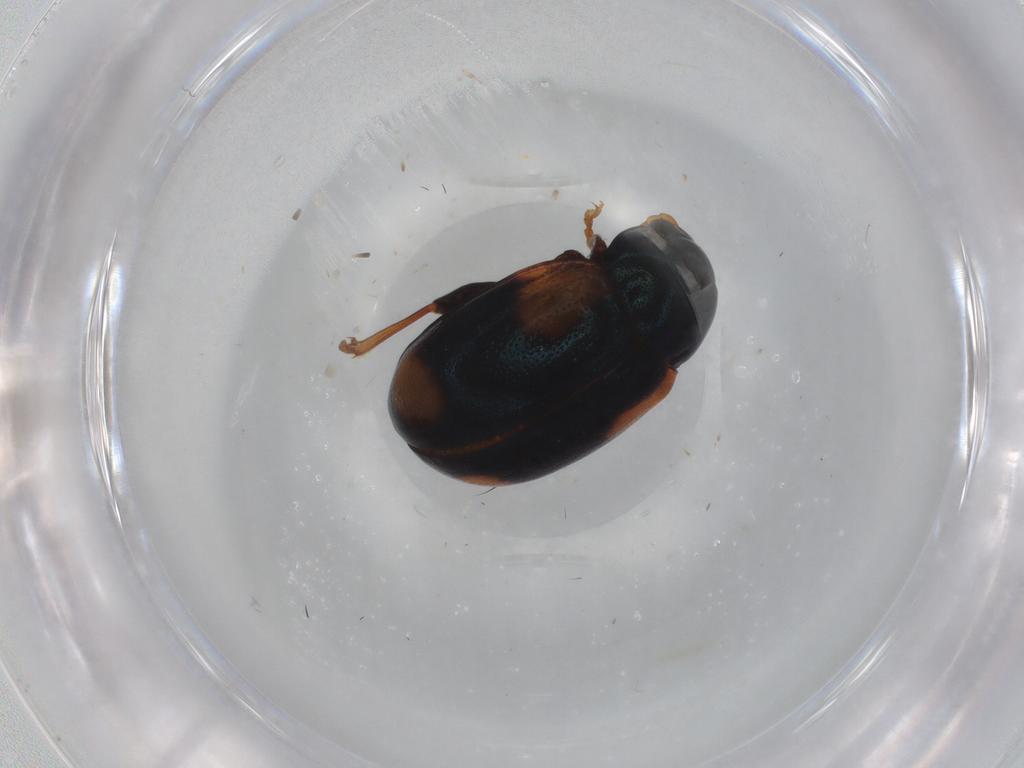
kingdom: Animalia
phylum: Arthropoda
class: Insecta
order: Coleoptera
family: Chrysomelidae
